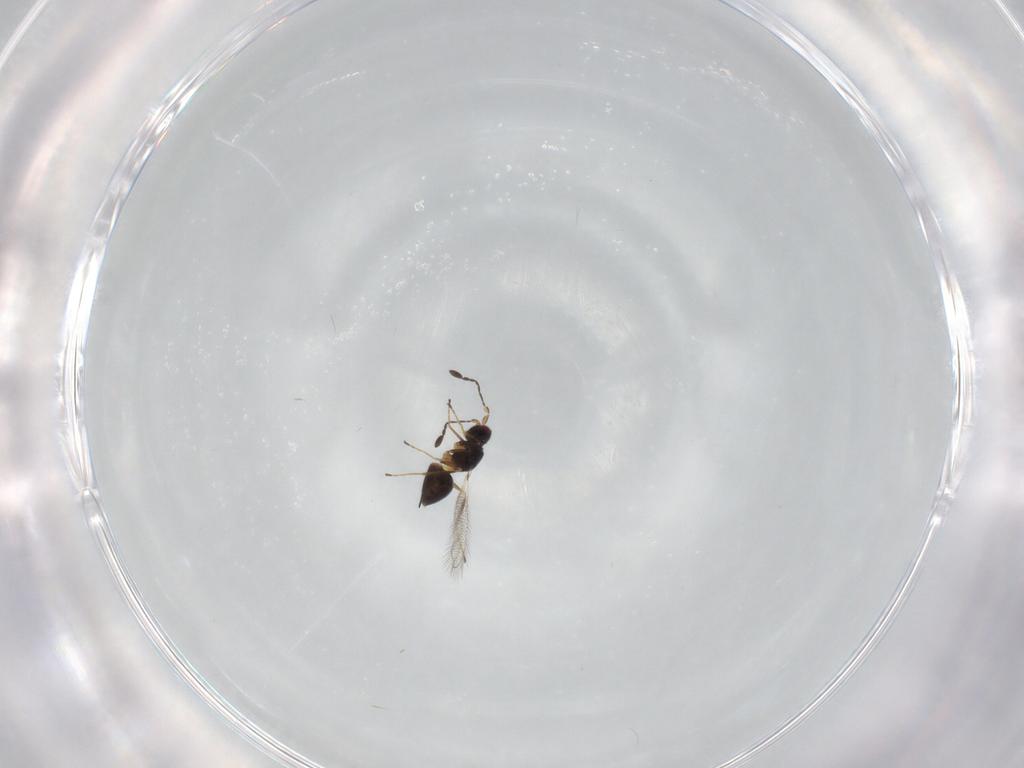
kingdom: Animalia
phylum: Arthropoda
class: Insecta
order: Hymenoptera
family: Mymaridae
